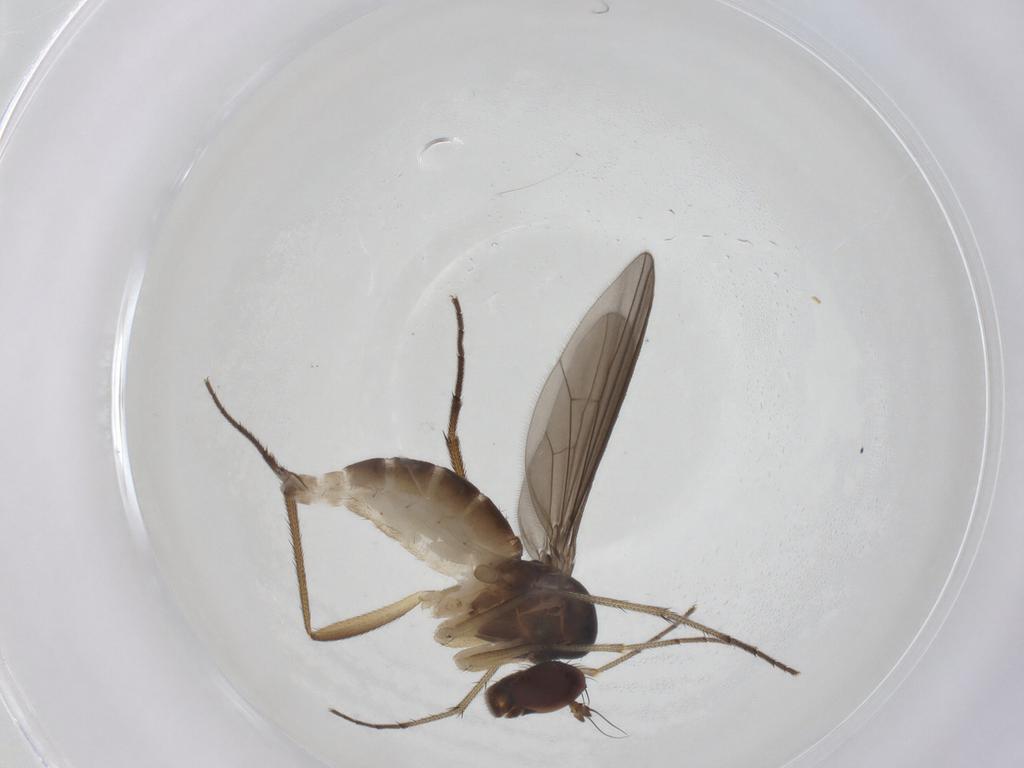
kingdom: Animalia
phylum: Arthropoda
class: Insecta
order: Diptera
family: Dolichopodidae
